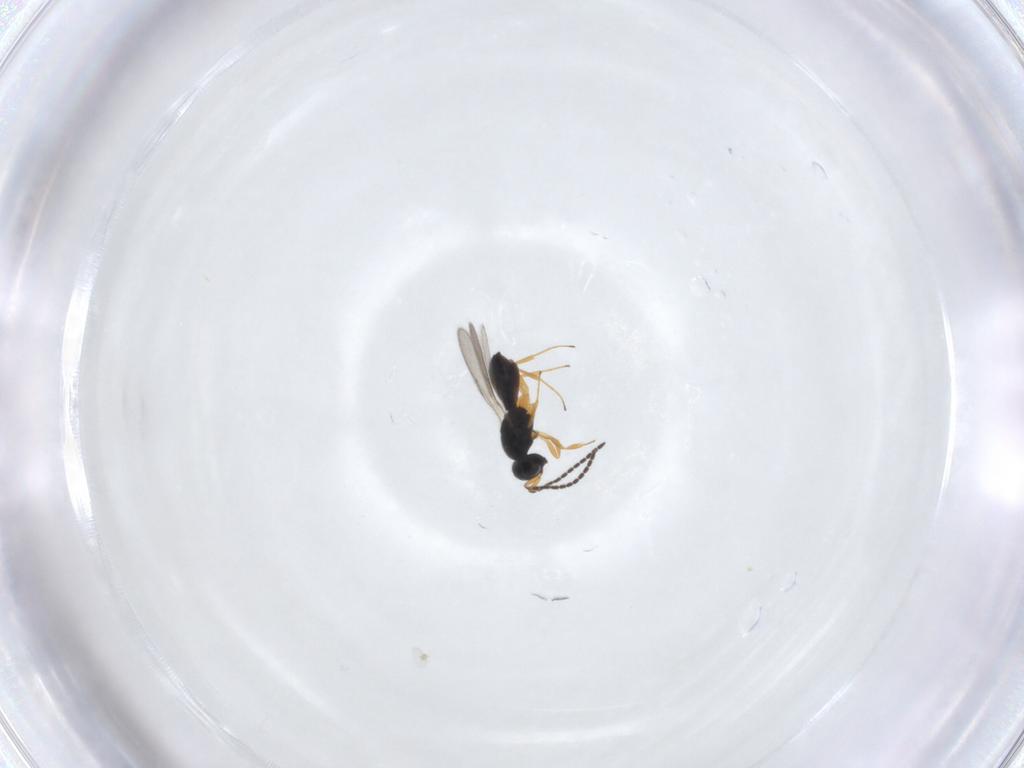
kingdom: Animalia
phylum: Arthropoda
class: Insecta
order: Hymenoptera
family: Scelionidae
